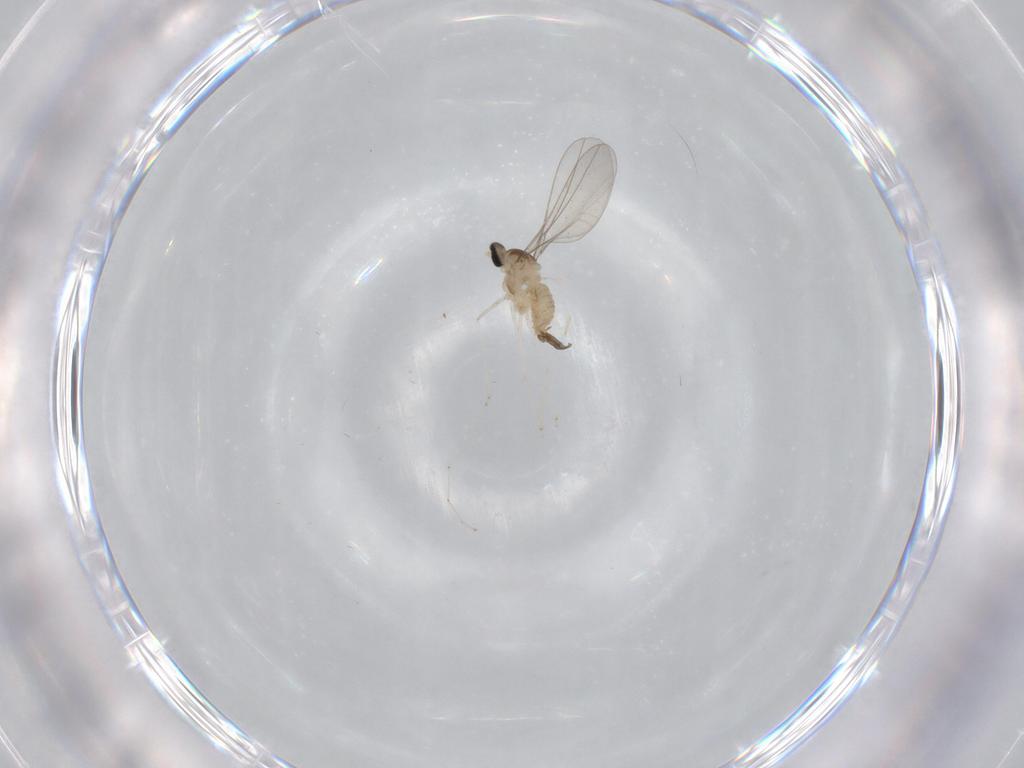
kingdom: Animalia
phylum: Arthropoda
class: Insecta
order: Diptera
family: Cecidomyiidae
